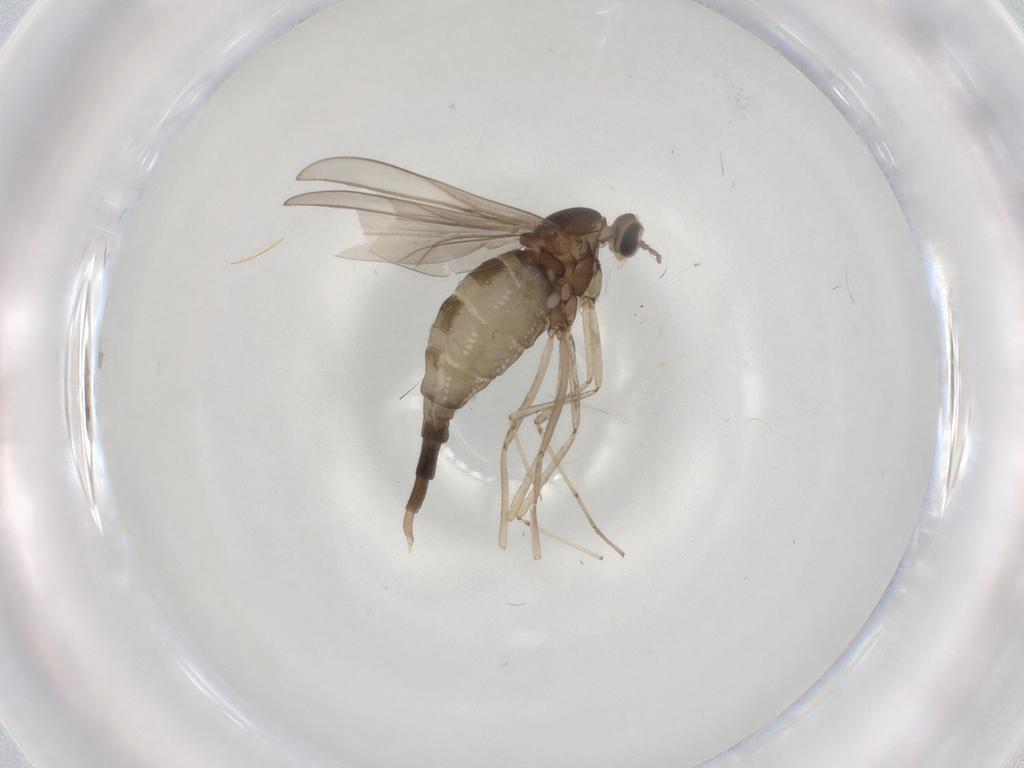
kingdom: Animalia
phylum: Arthropoda
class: Insecta
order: Diptera
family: Cecidomyiidae
